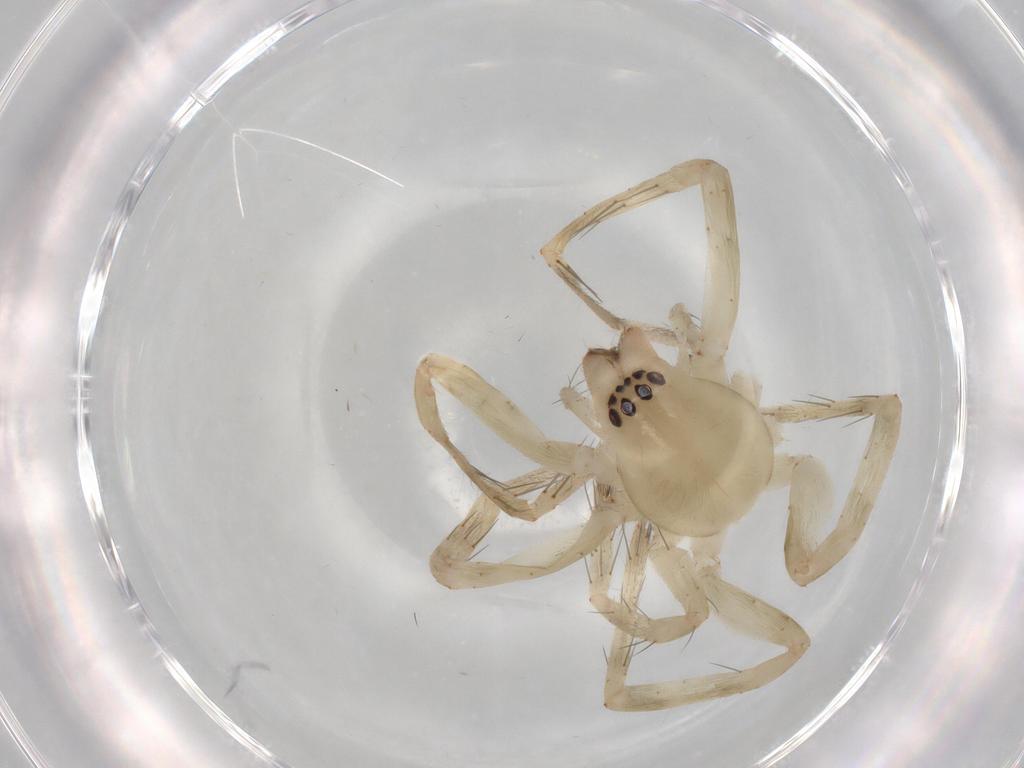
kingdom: Animalia
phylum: Arthropoda
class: Arachnida
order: Araneae
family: Anyphaenidae
